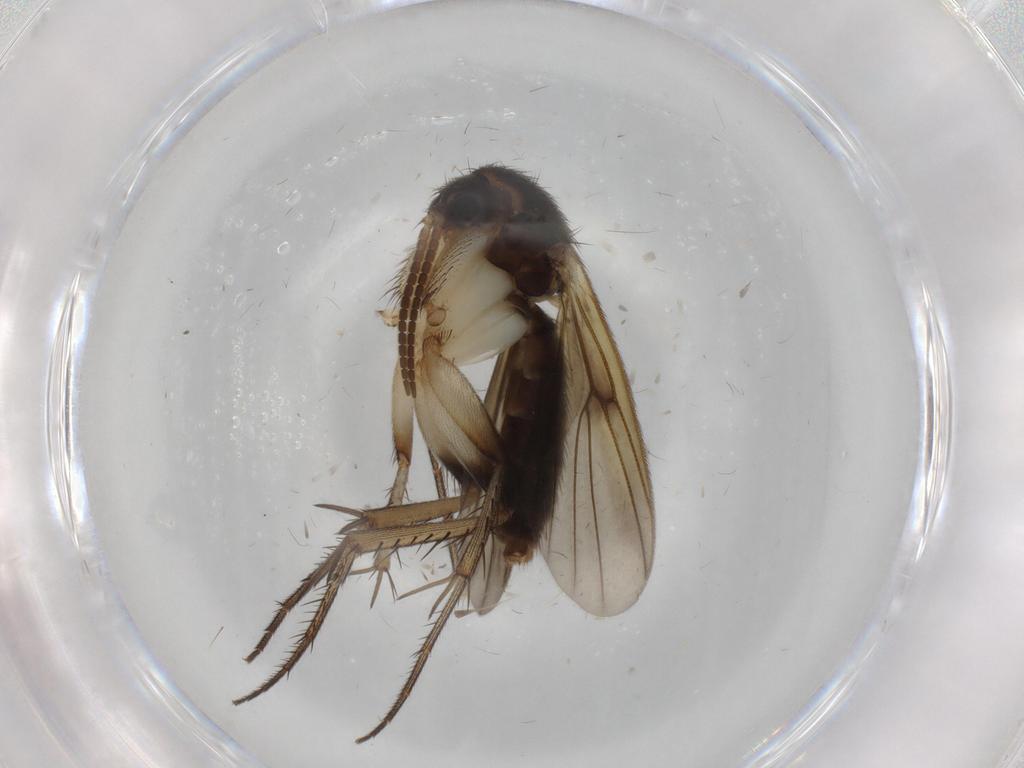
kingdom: Animalia
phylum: Arthropoda
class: Insecta
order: Diptera
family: Mycetophilidae
